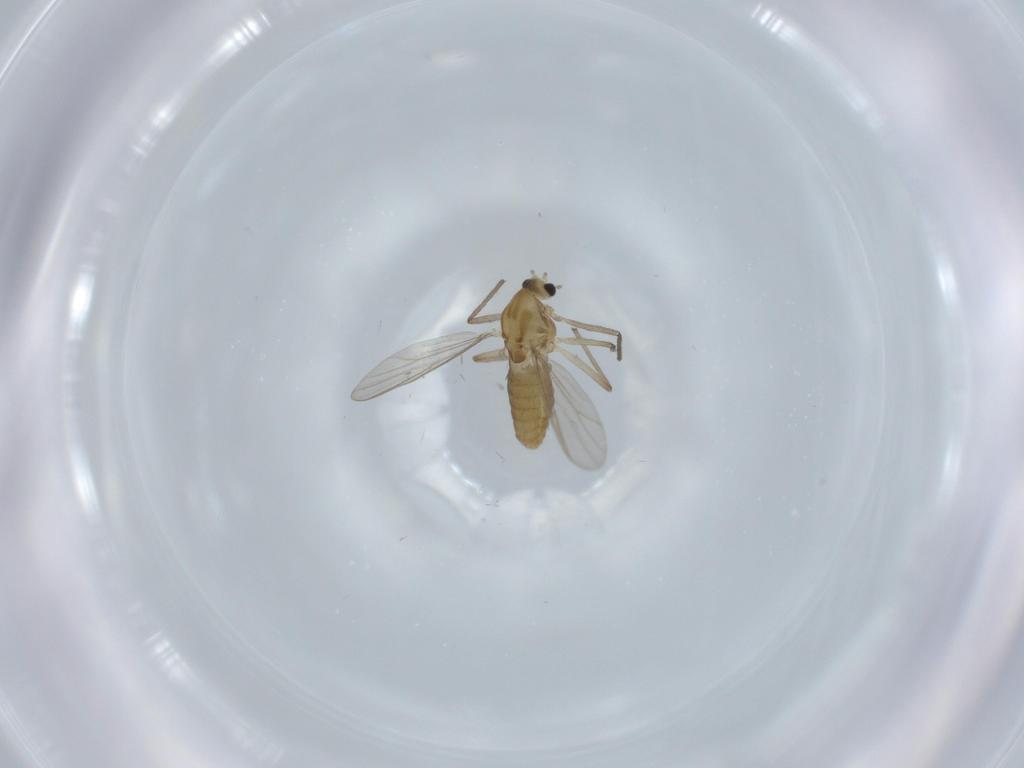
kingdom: Animalia
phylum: Arthropoda
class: Insecta
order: Diptera
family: Chironomidae
